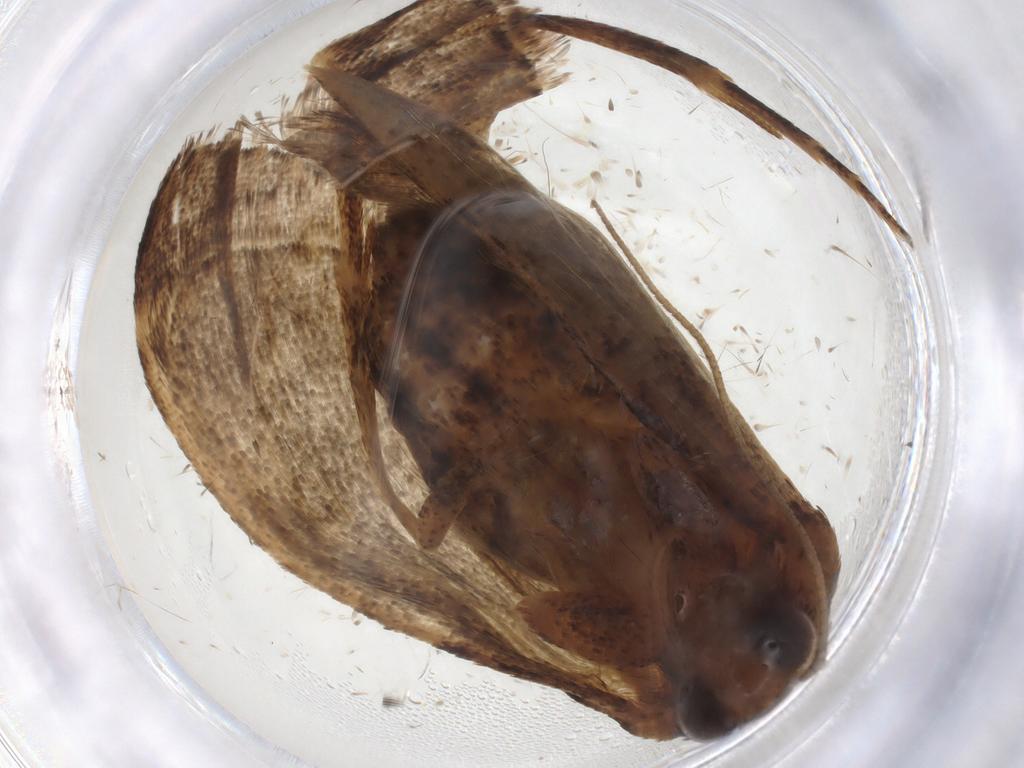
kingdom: Animalia
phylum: Arthropoda
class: Insecta
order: Lepidoptera
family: Pyralidae
